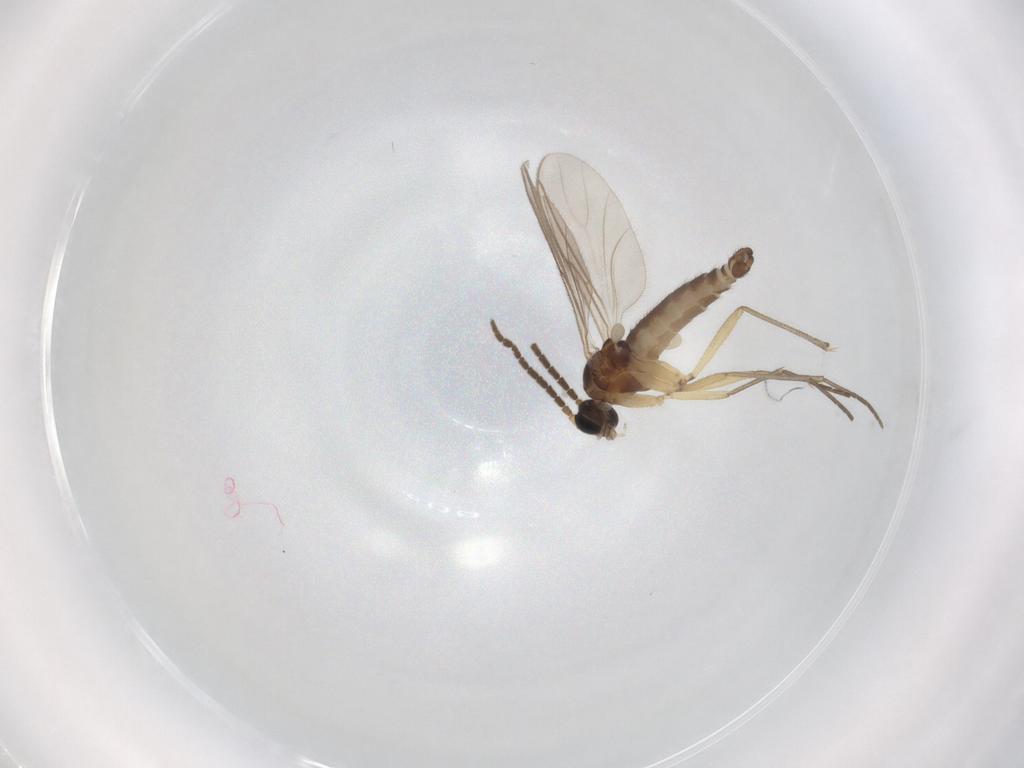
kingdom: Animalia
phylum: Arthropoda
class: Insecta
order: Diptera
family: Sciaridae
